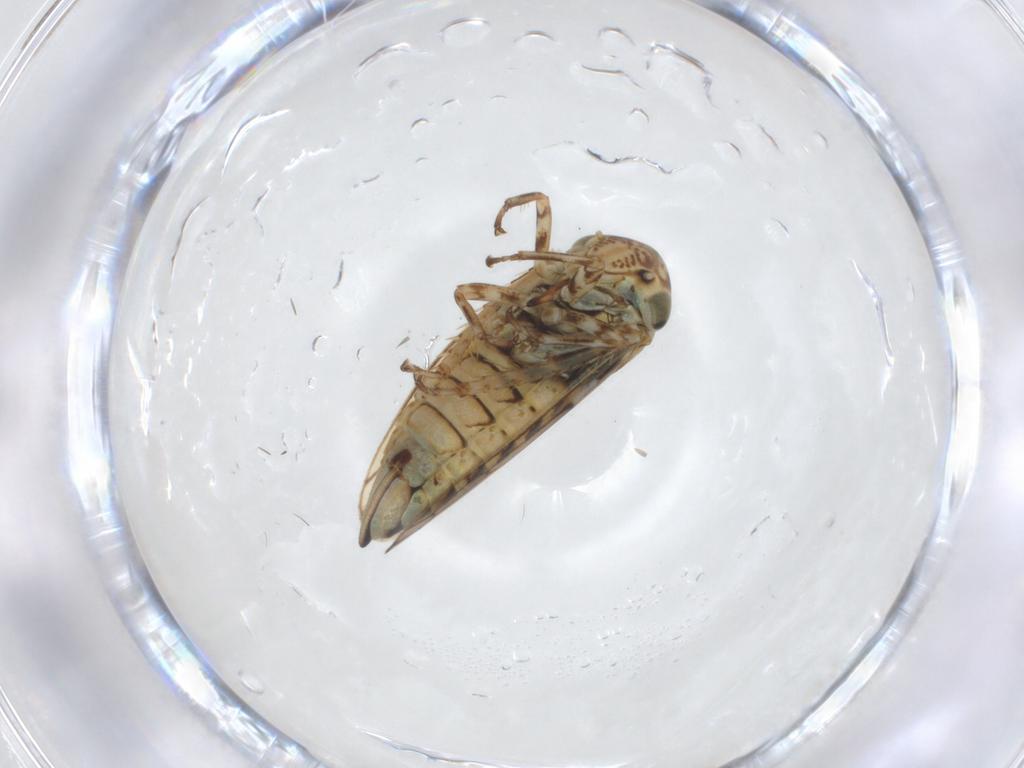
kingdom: Animalia
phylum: Arthropoda
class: Insecta
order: Hemiptera
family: Cicadellidae
